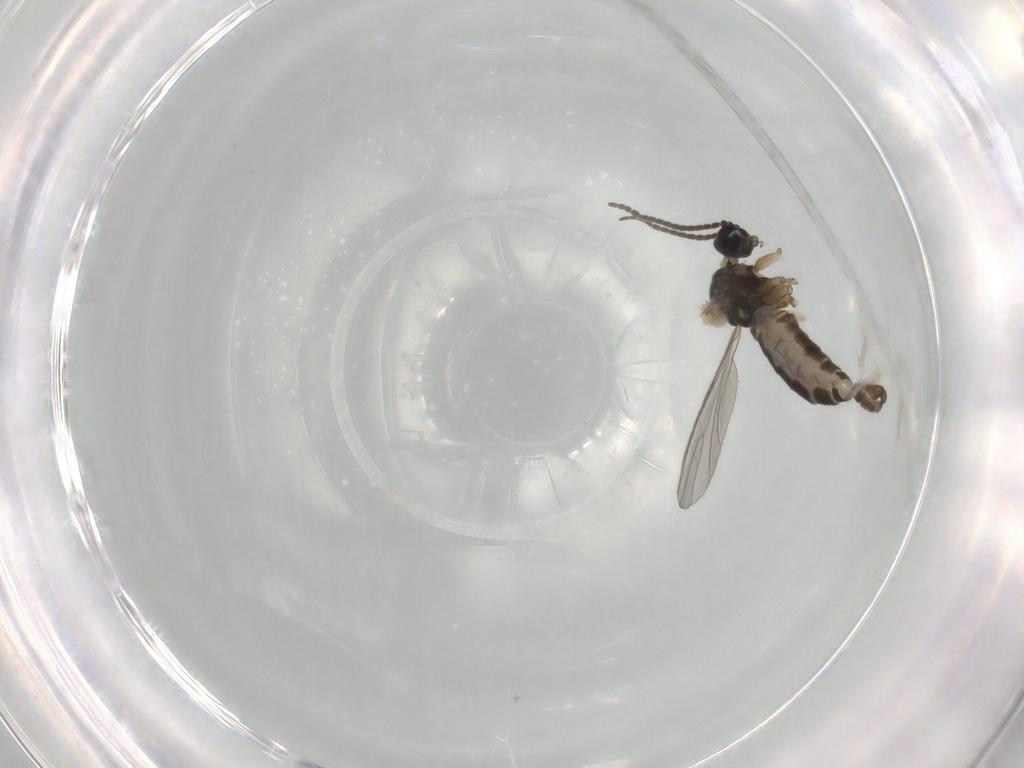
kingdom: Animalia
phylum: Arthropoda
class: Insecta
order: Diptera
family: Sciaridae
